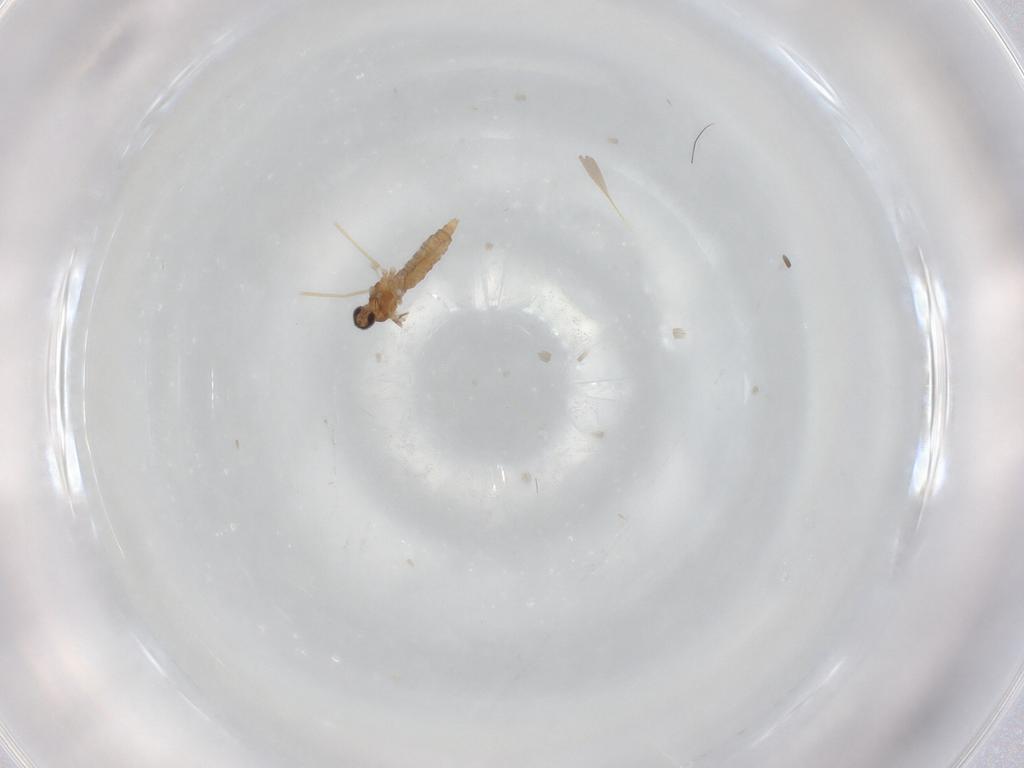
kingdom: Animalia
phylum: Arthropoda
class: Insecta
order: Diptera
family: Cecidomyiidae
